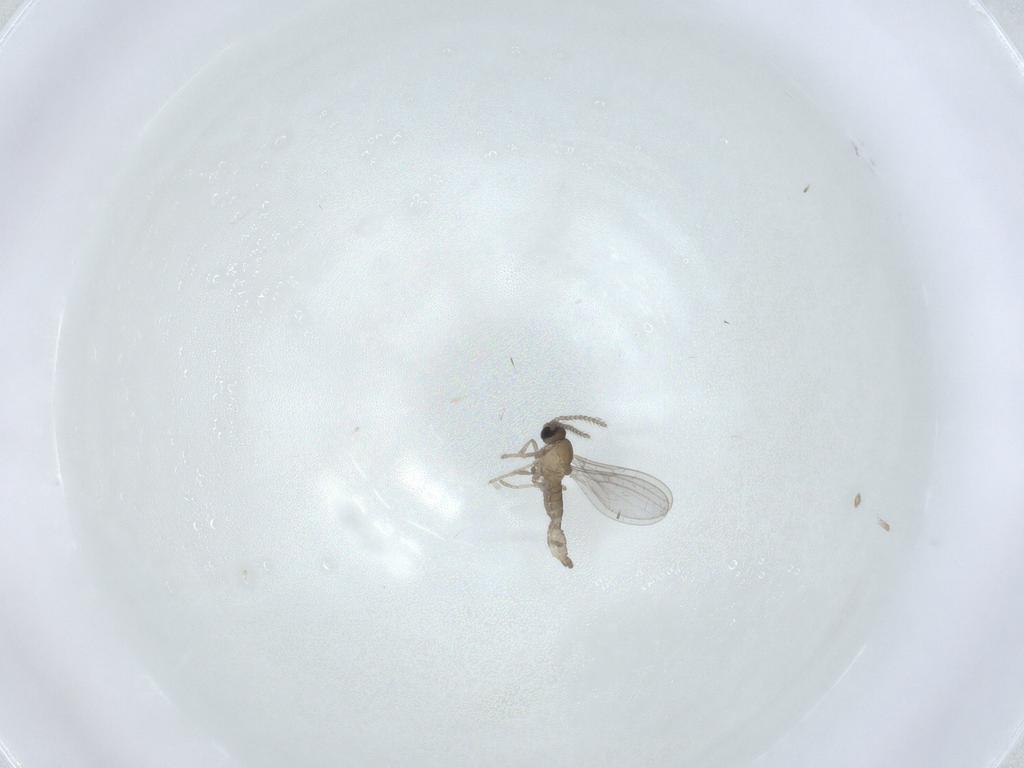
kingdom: Animalia
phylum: Arthropoda
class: Insecta
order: Diptera
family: Cecidomyiidae
